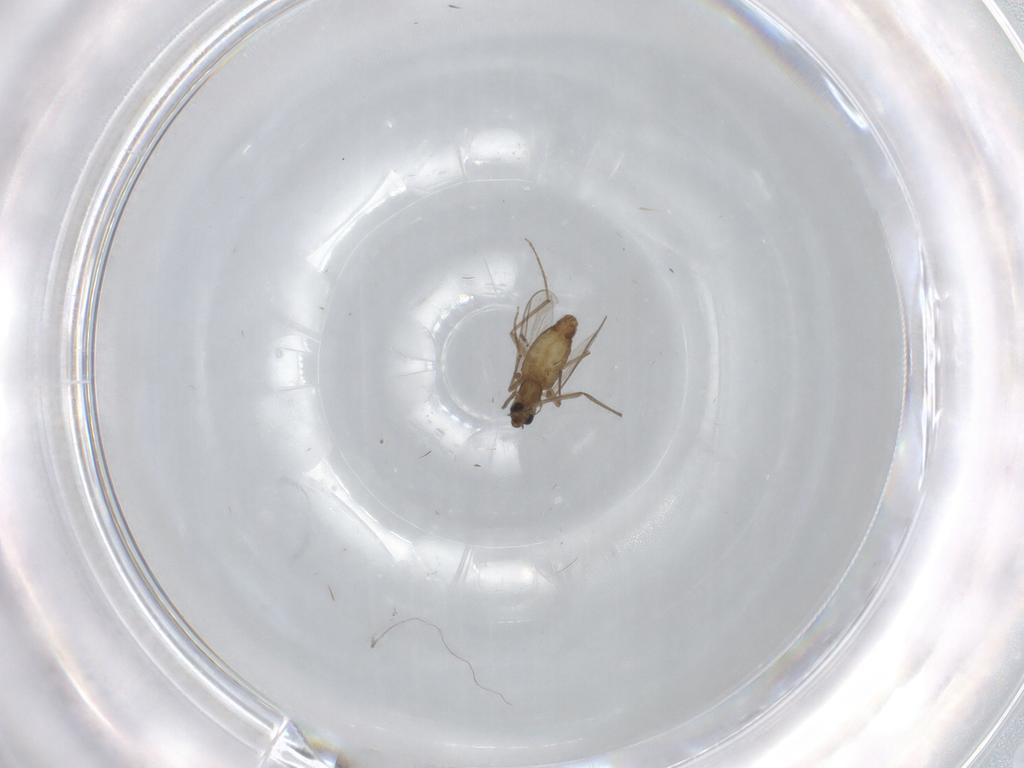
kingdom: Animalia
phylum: Arthropoda
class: Insecta
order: Diptera
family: Chironomidae
